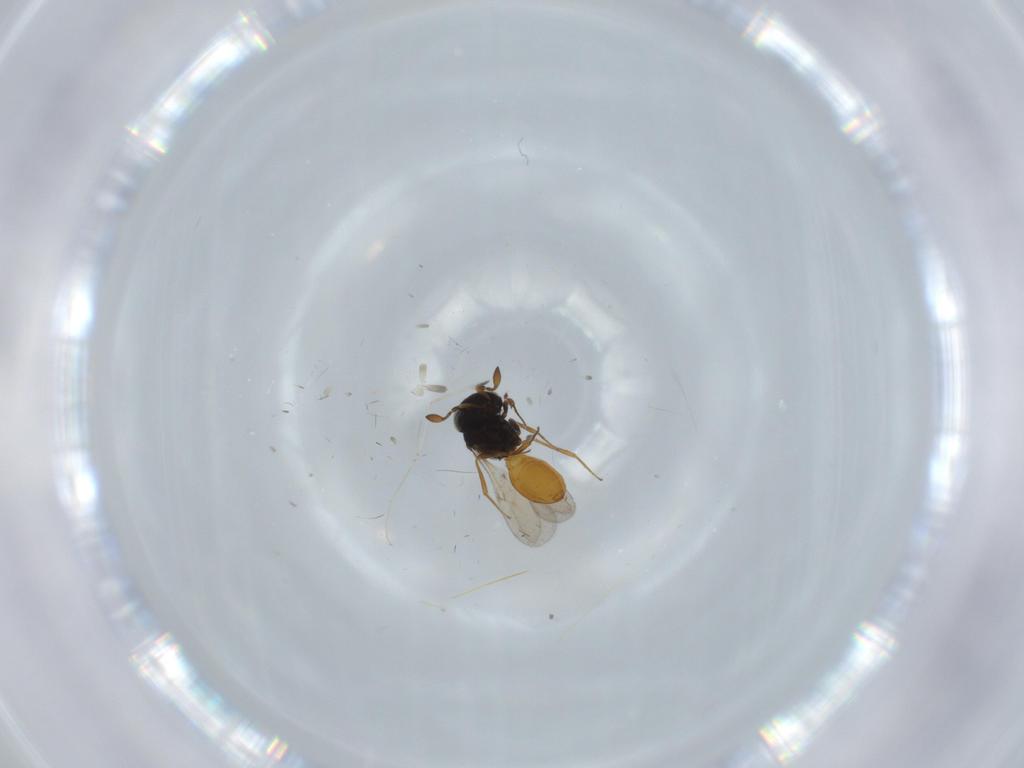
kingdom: Animalia
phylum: Arthropoda
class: Insecta
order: Hymenoptera
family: Scelionidae
